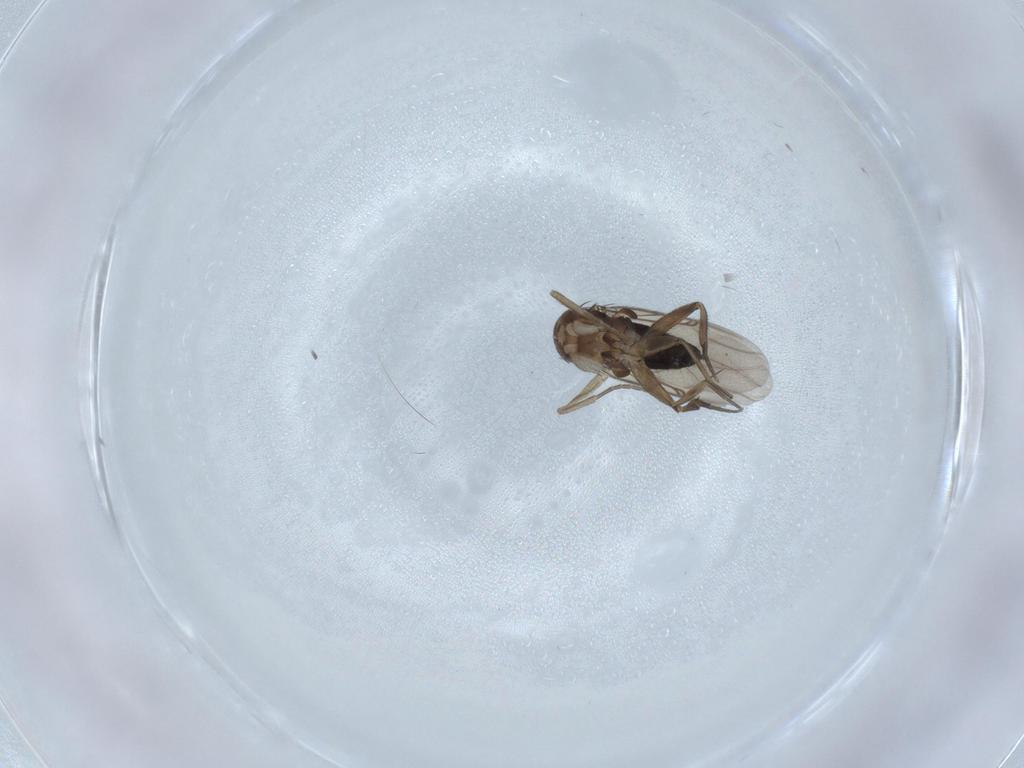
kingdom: Animalia
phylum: Arthropoda
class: Insecta
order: Diptera
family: Phoridae
